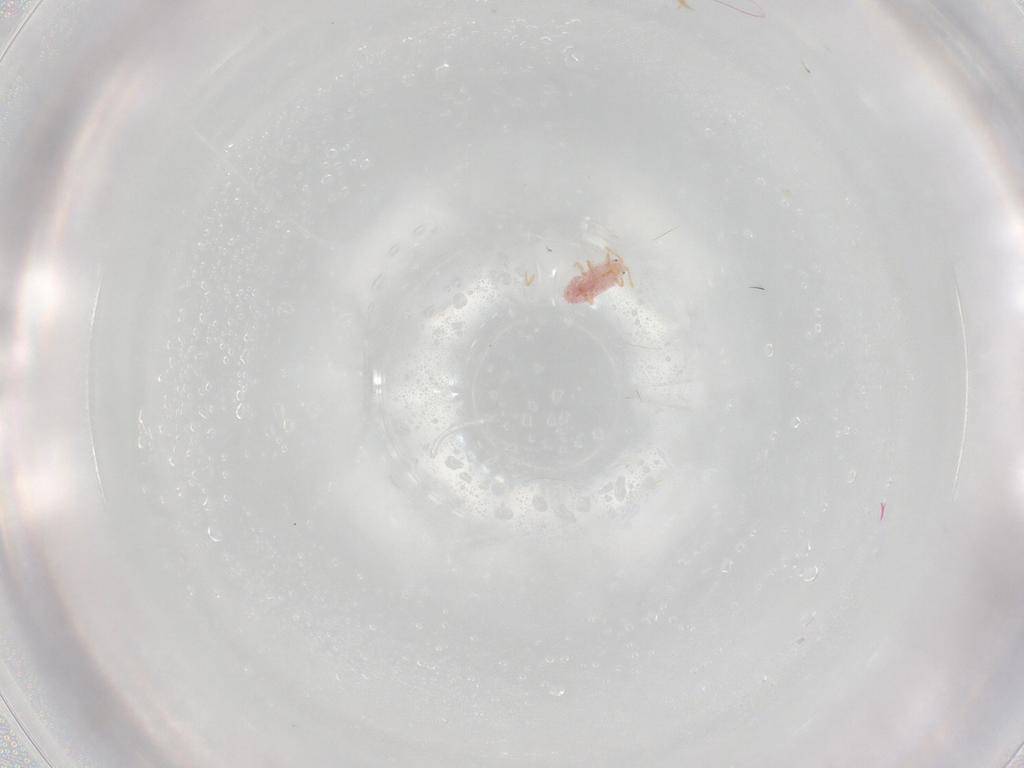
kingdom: Animalia
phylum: Arthropoda
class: Insecta
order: Hemiptera
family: Cicadellidae
